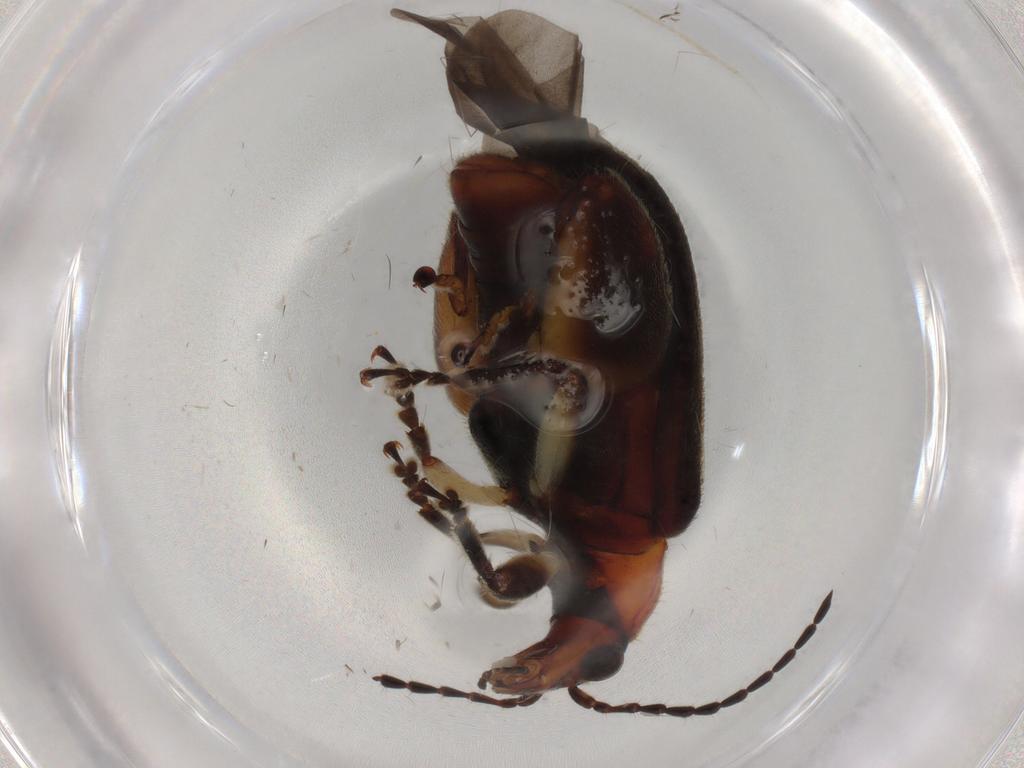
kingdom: Animalia
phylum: Arthropoda
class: Insecta
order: Coleoptera
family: Chrysomelidae
